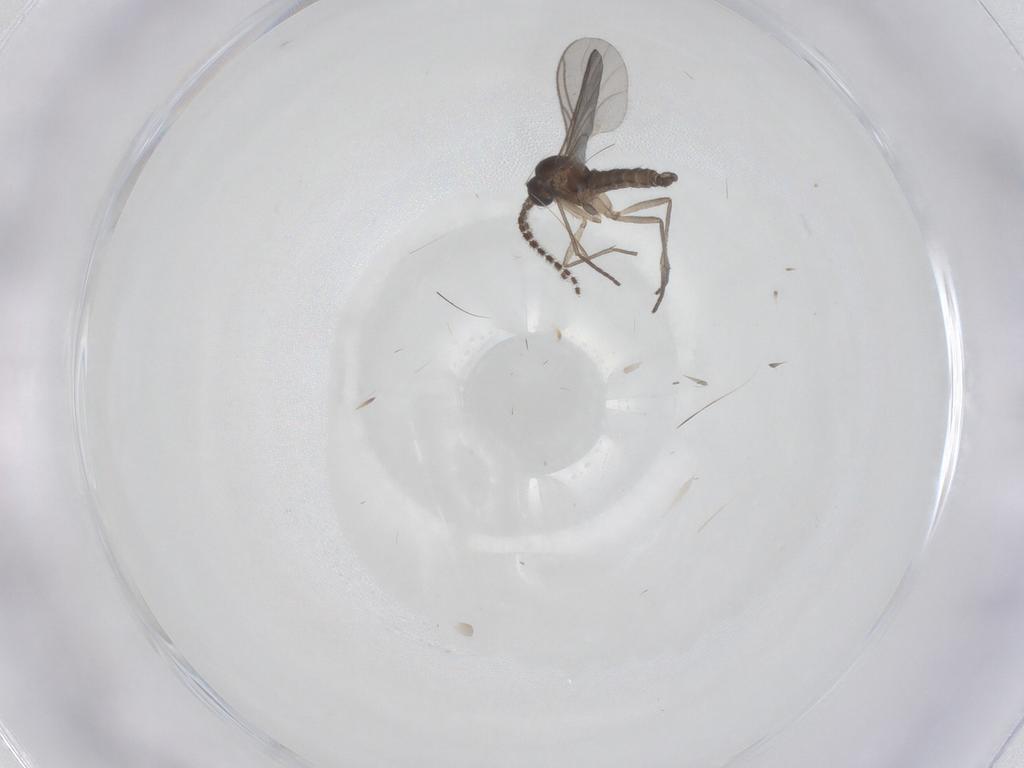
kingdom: Animalia
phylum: Arthropoda
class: Insecta
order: Diptera
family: Sciaridae
